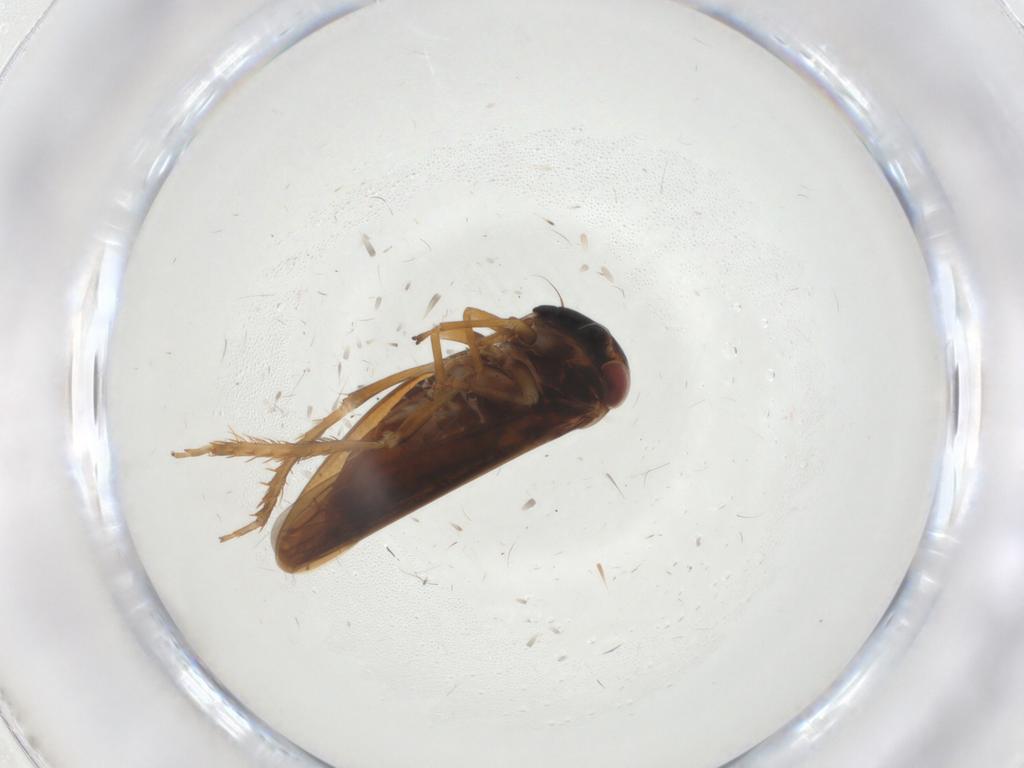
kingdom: Animalia
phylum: Arthropoda
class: Insecta
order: Hemiptera
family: Cicadellidae
